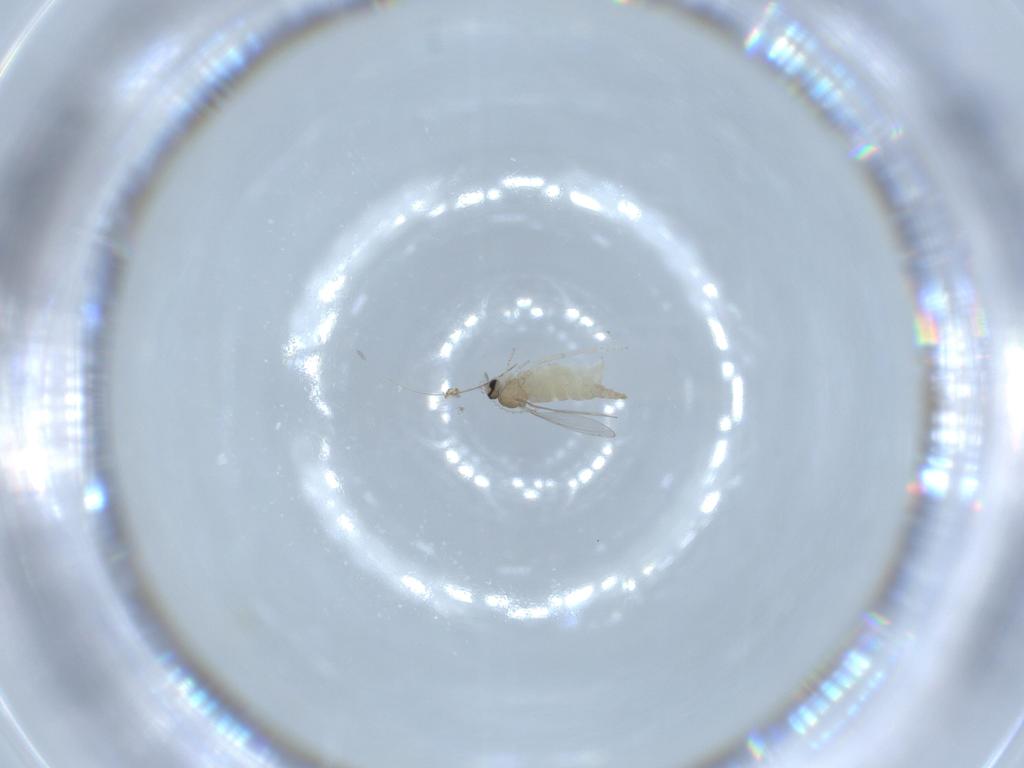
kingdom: Animalia
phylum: Arthropoda
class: Insecta
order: Diptera
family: Cecidomyiidae
